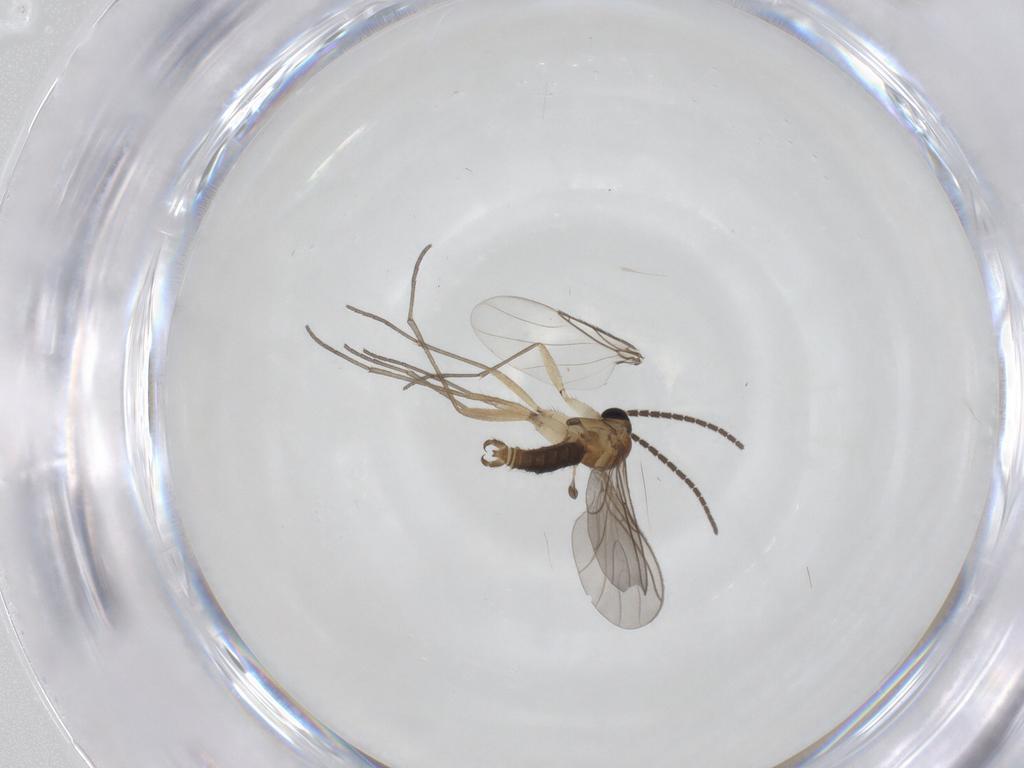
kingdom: Animalia
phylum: Arthropoda
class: Insecta
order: Diptera
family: Sciaridae
